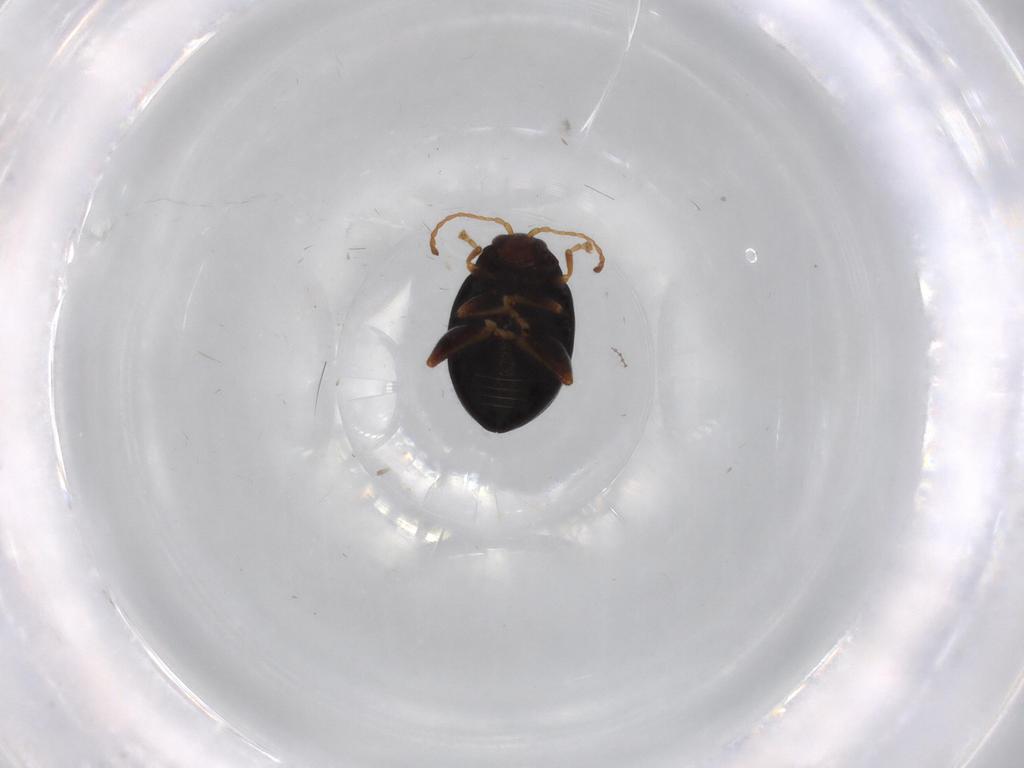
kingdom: Animalia
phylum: Arthropoda
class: Insecta
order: Coleoptera
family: Chrysomelidae
